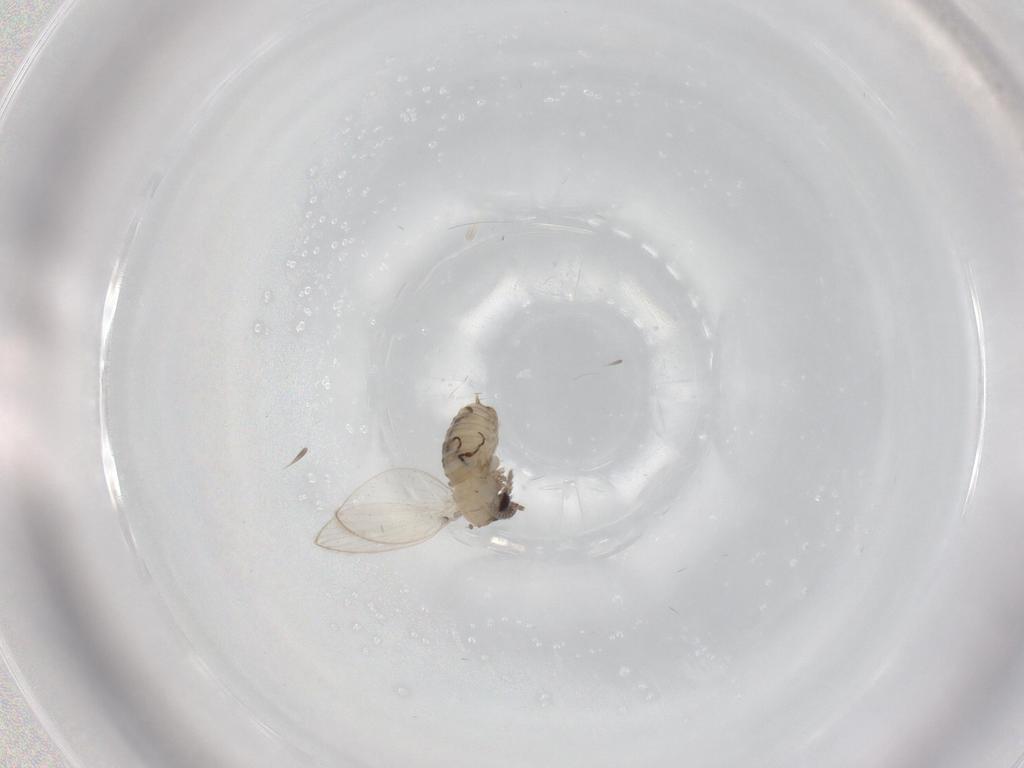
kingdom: Animalia
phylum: Arthropoda
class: Insecta
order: Diptera
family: Psychodidae
